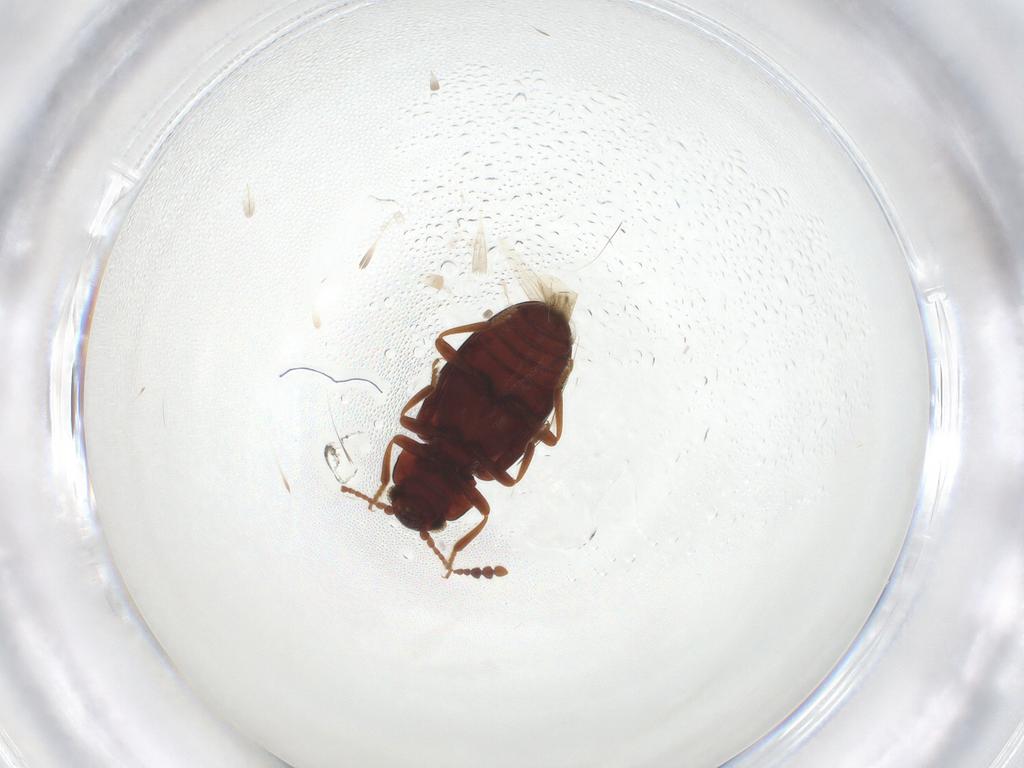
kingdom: Animalia
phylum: Arthropoda
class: Insecta
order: Coleoptera
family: Erotylidae
